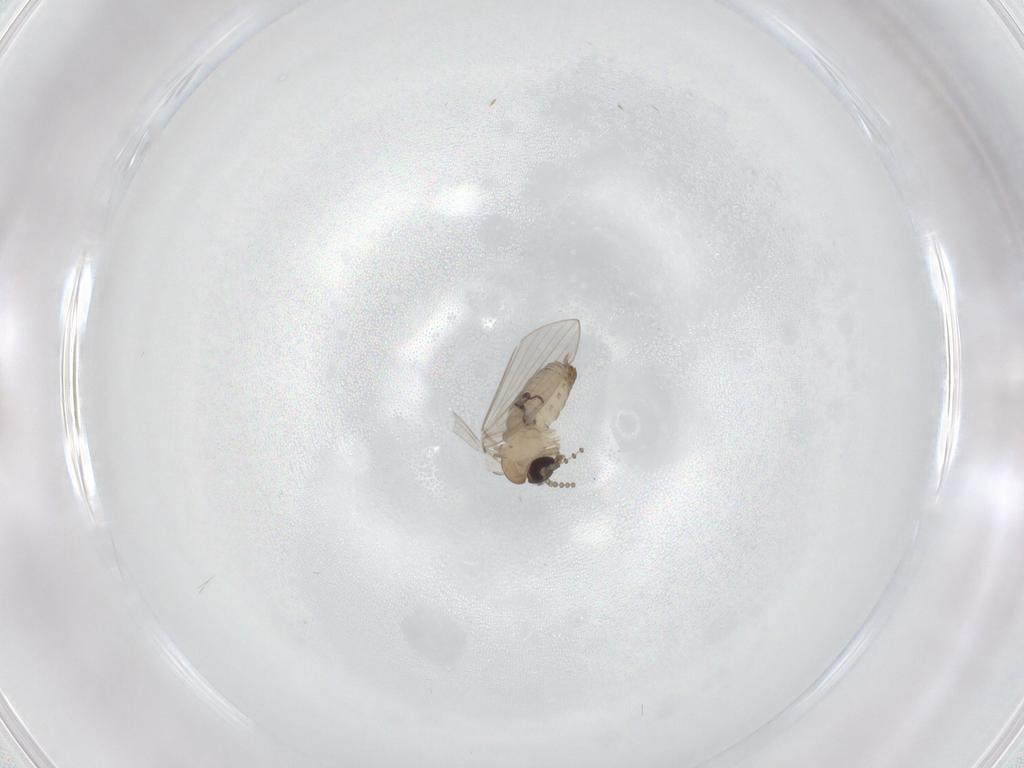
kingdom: Animalia
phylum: Arthropoda
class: Insecta
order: Diptera
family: Psychodidae
